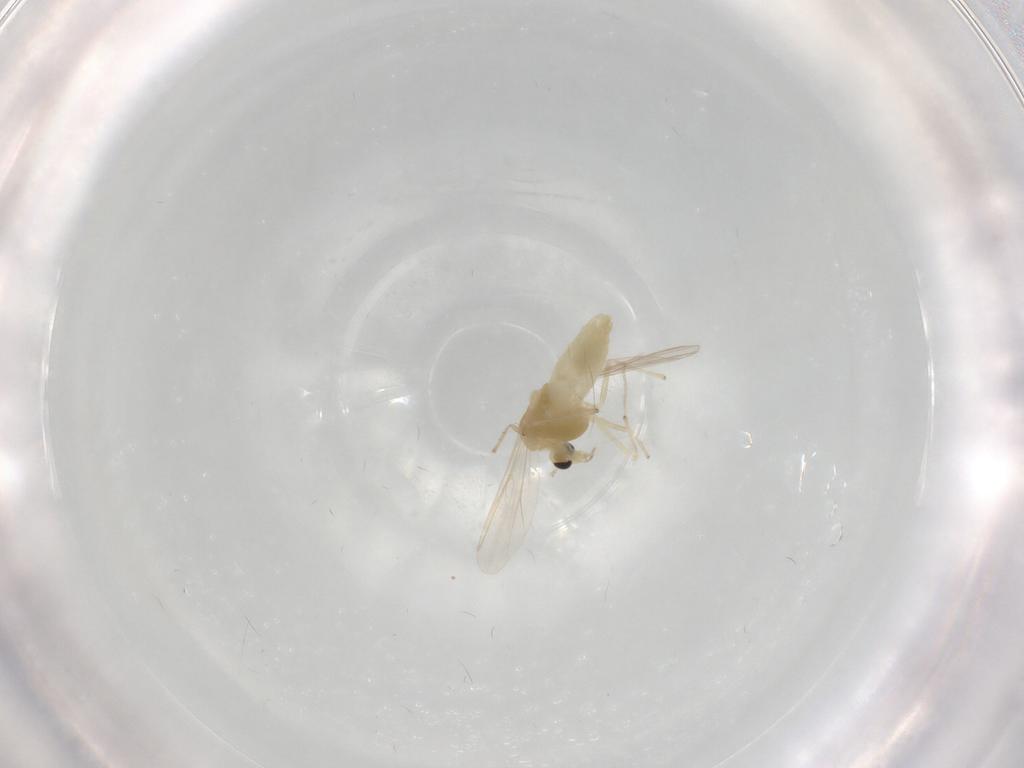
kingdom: Animalia
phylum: Arthropoda
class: Insecta
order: Diptera
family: Chironomidae
